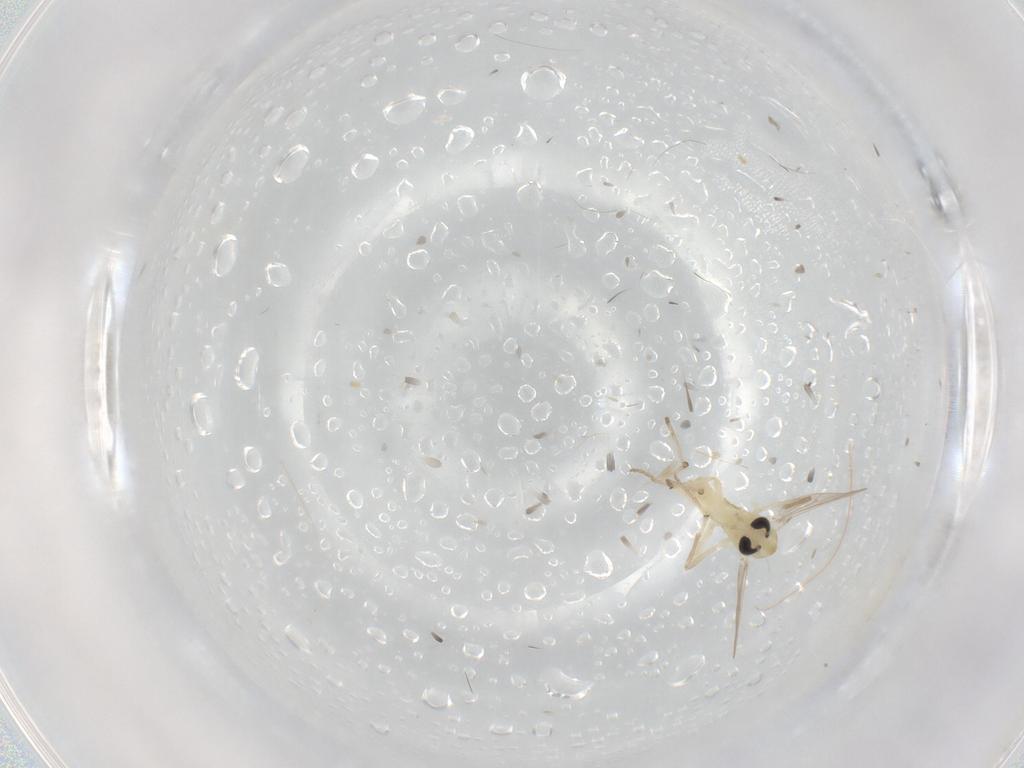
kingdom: Animalia
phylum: Arthropoda
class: Insecta
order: Diptera
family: Chironomidae
